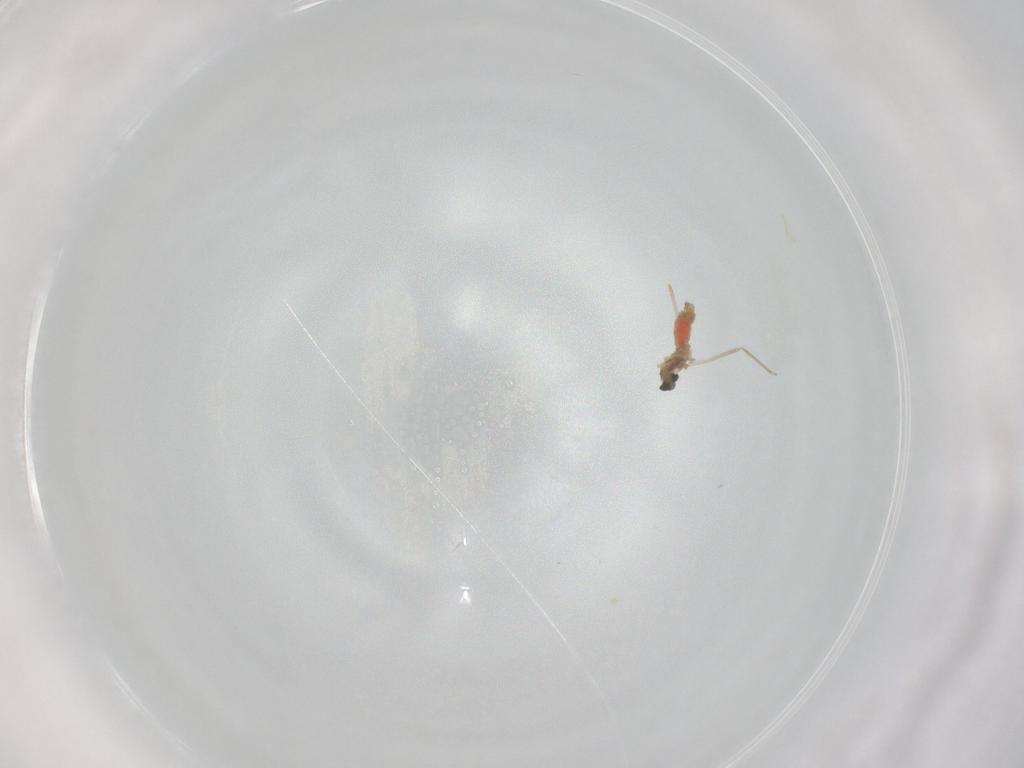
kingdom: Animalia
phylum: Arthropoda
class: Insecta
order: Diptera
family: Cecidomyiidae
